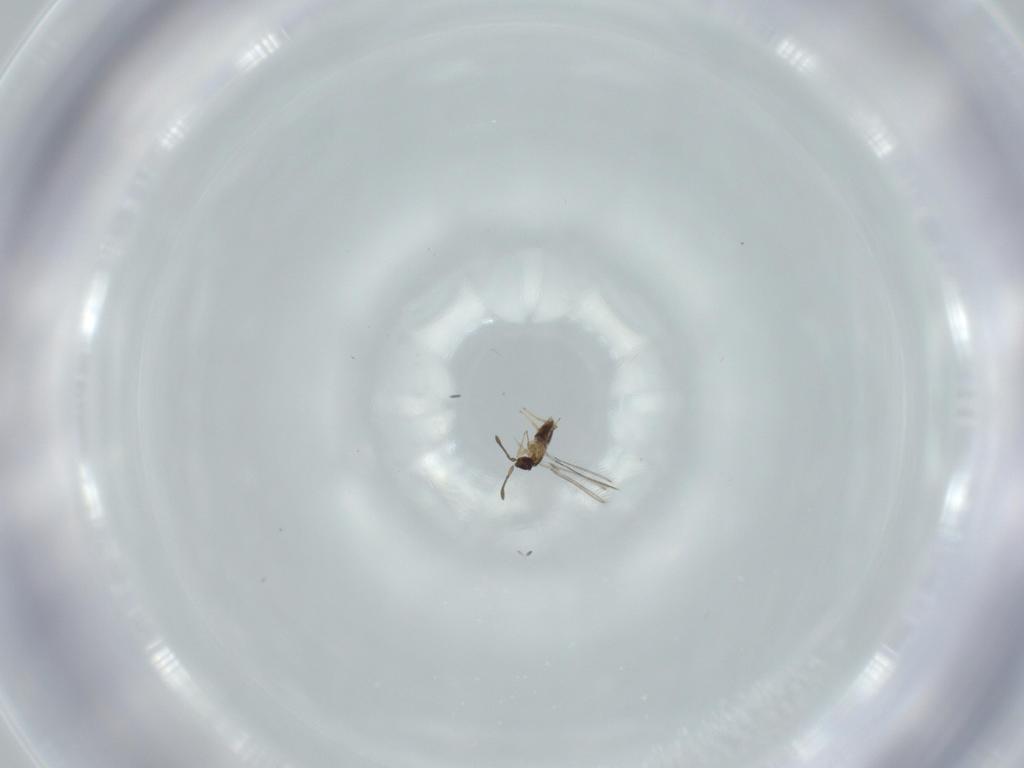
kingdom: Animalia
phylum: Arthropoda
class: Insecta
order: Hymenoptera
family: Mymaridae
